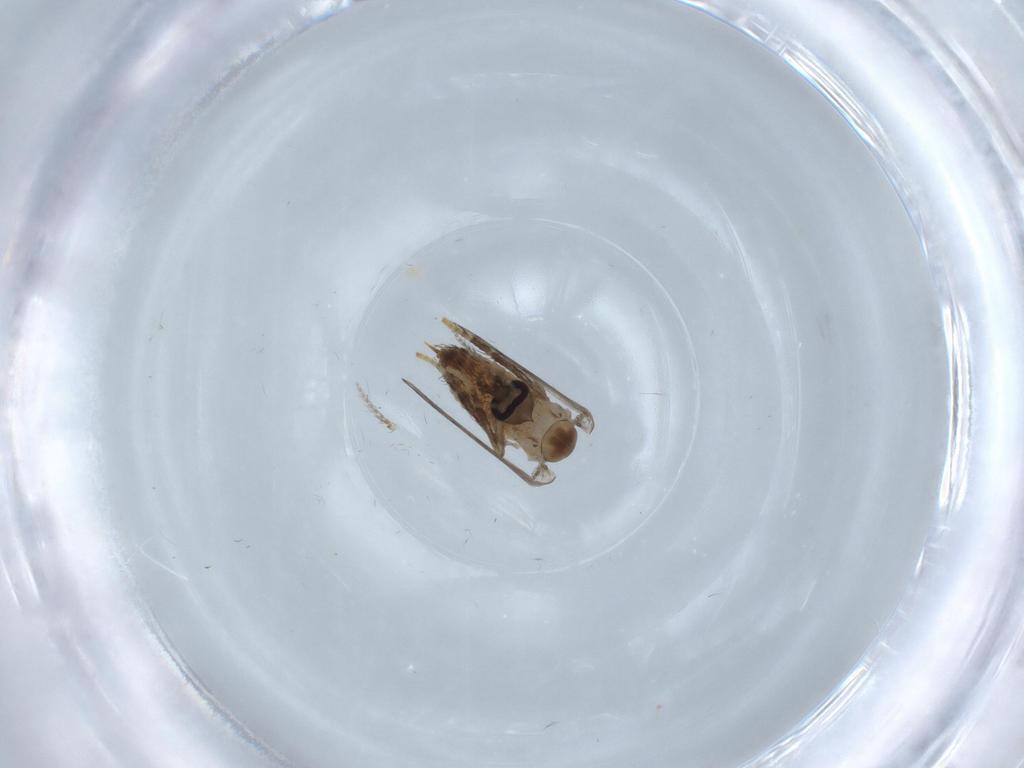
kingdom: Animalia
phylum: Arthropoda
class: Insecta
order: Diptera
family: Psychodidae
